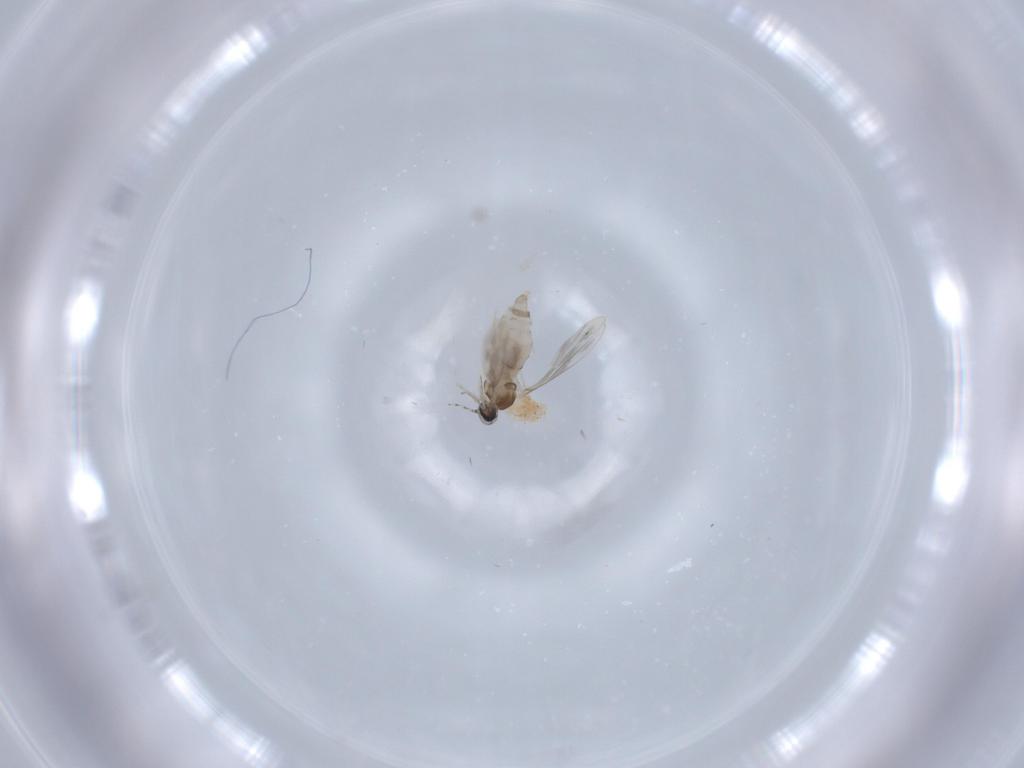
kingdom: Animalia
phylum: Arthropoda
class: Insecta
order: Diptera
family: Cecidomyiidae
